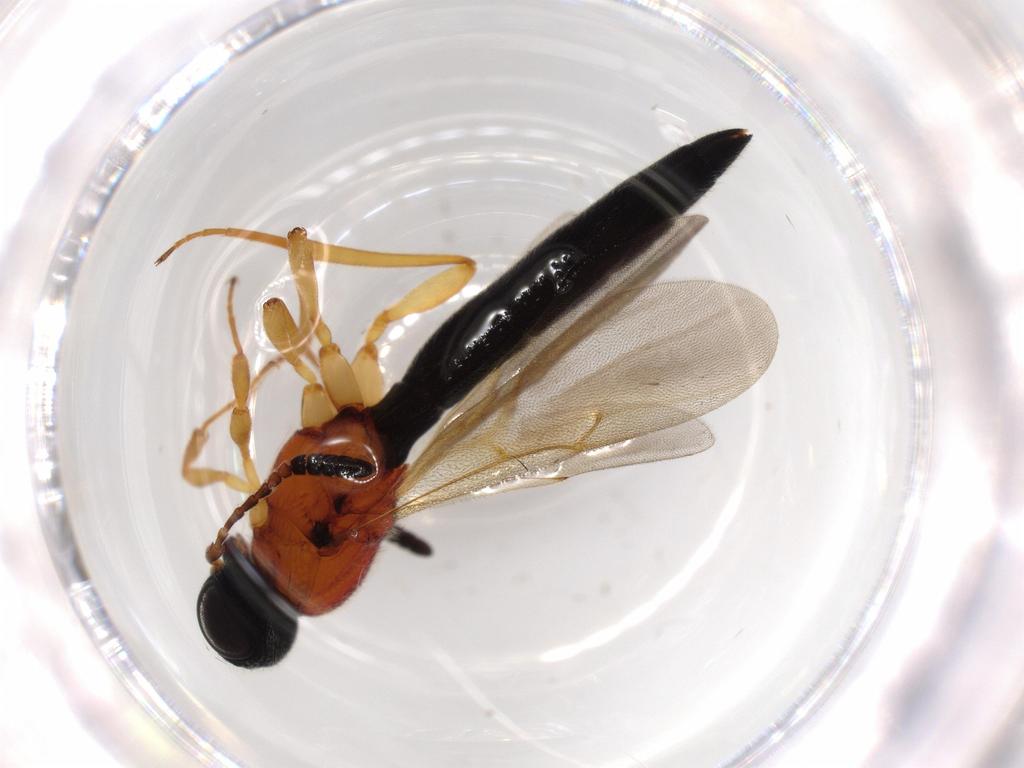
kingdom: Animalia
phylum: Arthropoda
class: Insecta
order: Hymenoptera
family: Scelionidae
